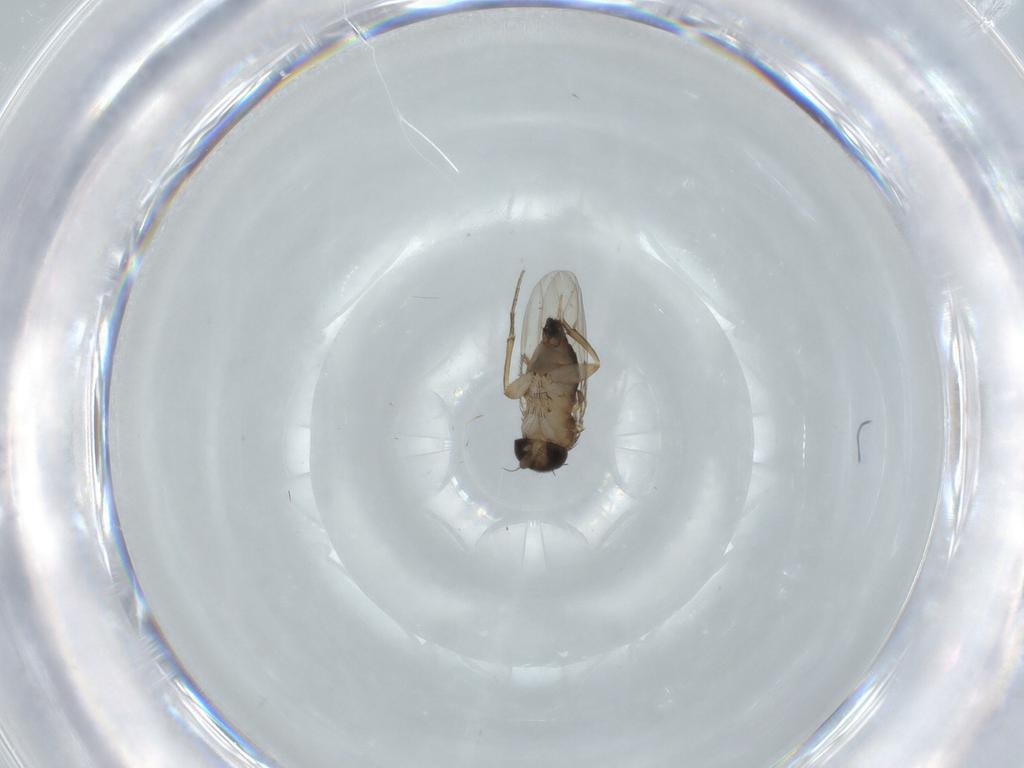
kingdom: Animalia
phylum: Arthropoda
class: Insecta
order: Diptera
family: Phoridae
